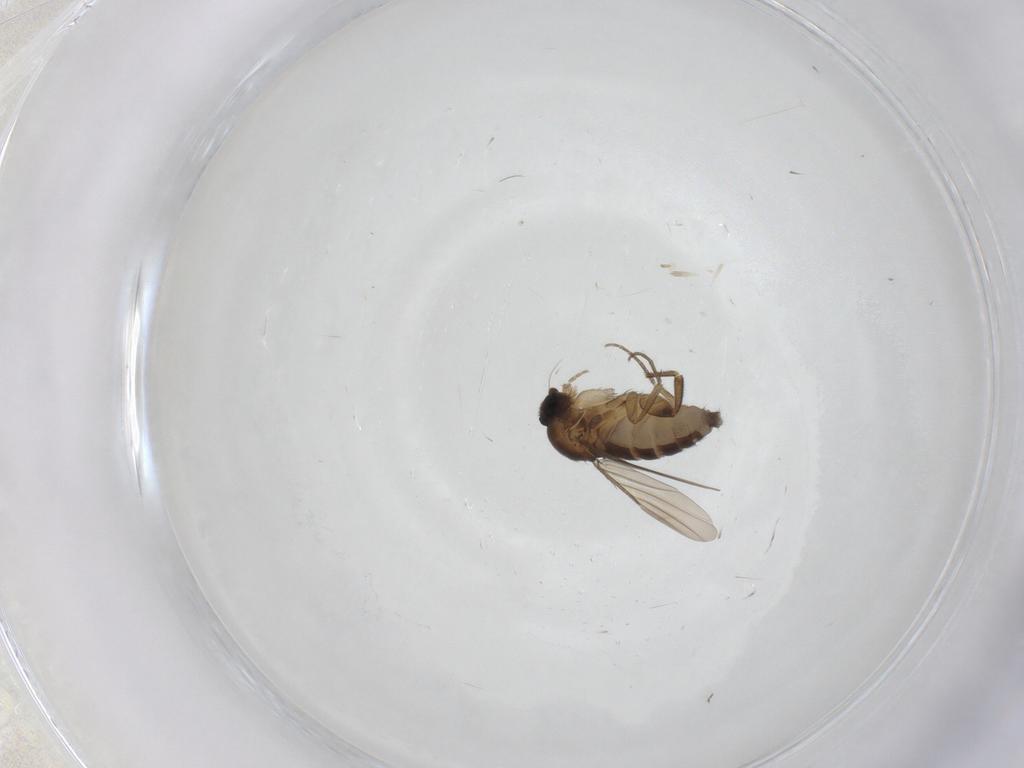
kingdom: Animalia
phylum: Arthropoda
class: Insecta
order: Diptera
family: Phoridae
